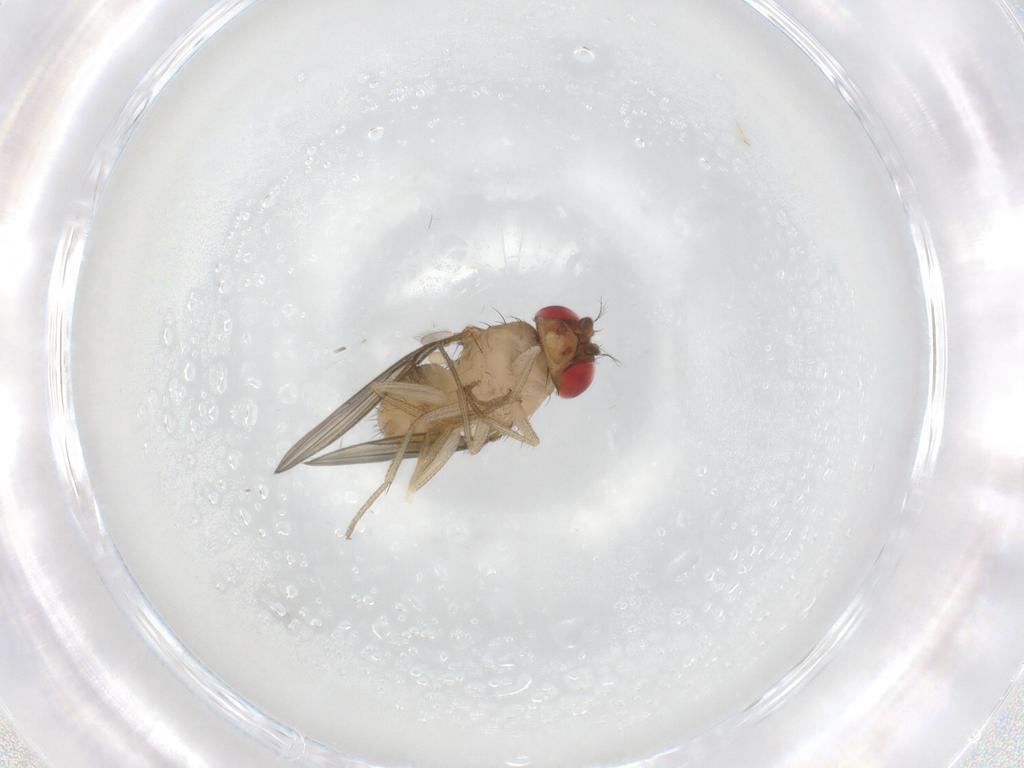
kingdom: Animalia
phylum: Arthropoda
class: Insecta
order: Diptera
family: Drosophilidae
